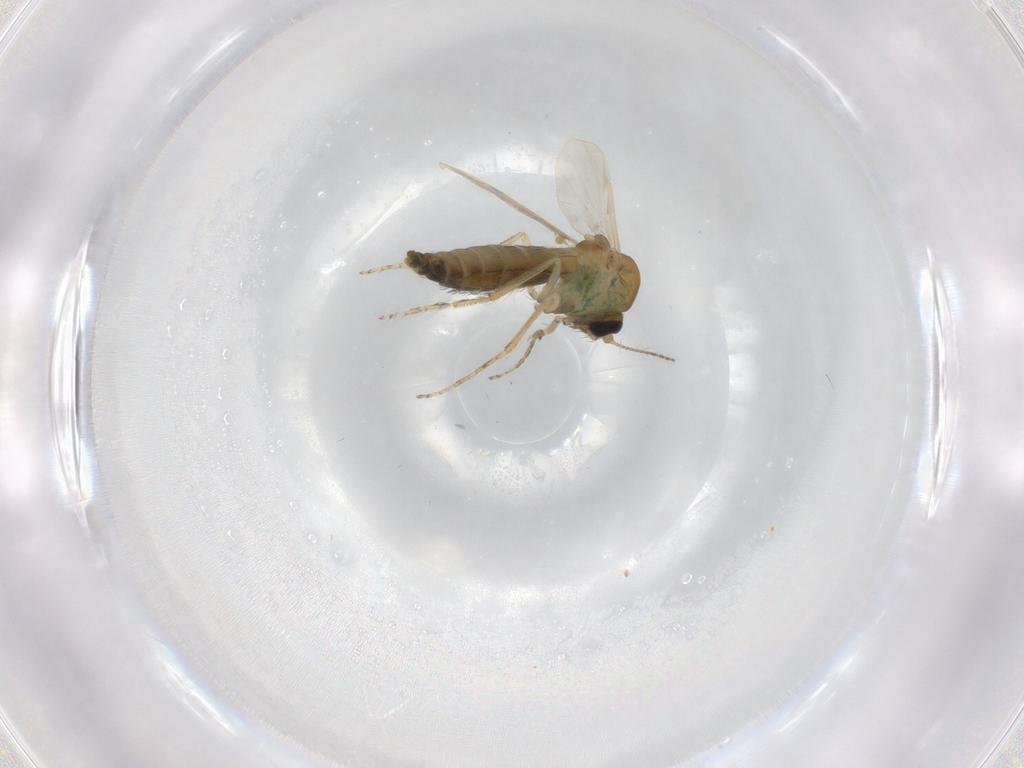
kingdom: Animalia
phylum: Arthropoda
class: Insecta
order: Diptera
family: Ceratopogonidae
